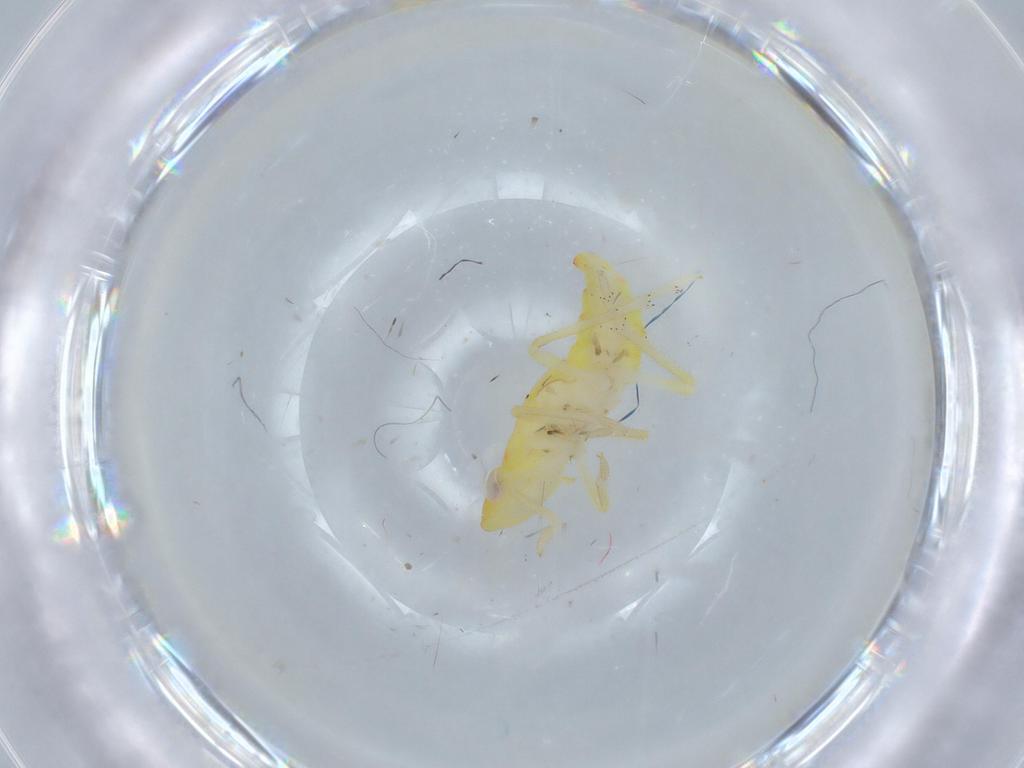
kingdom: Animalia
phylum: Arthropoda
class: Insecta
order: Hemiptera
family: Tropiduchidae
